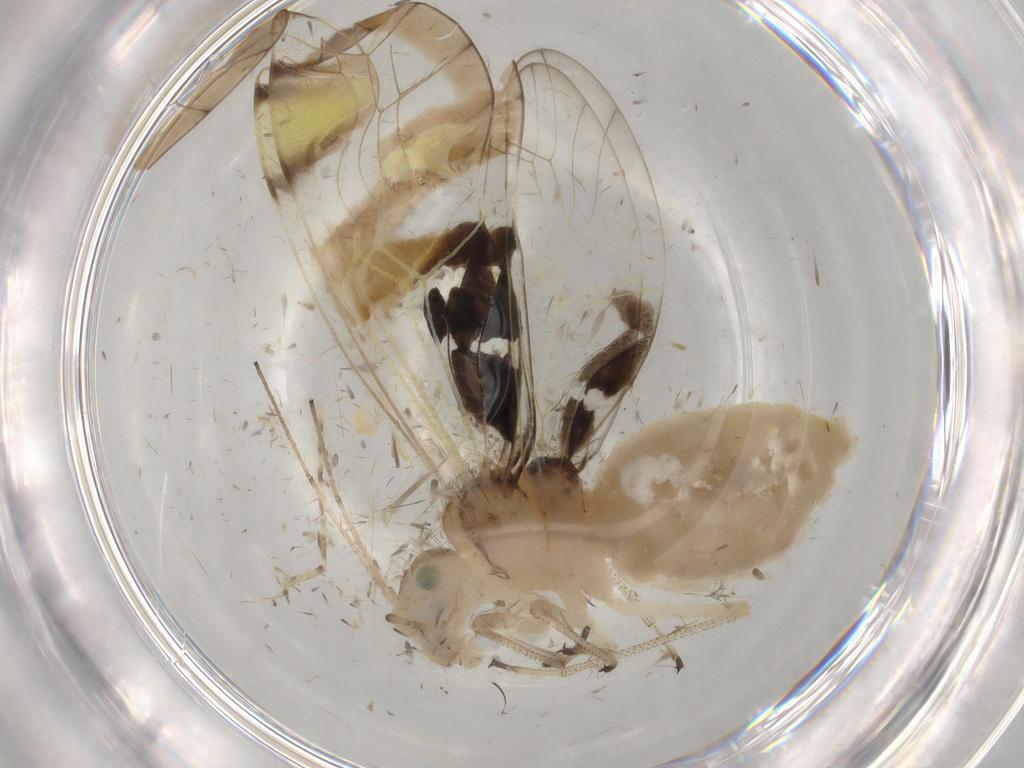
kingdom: Animalia
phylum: Arthropoda
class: Insecta
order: Psocodea
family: Amphipsocidae
